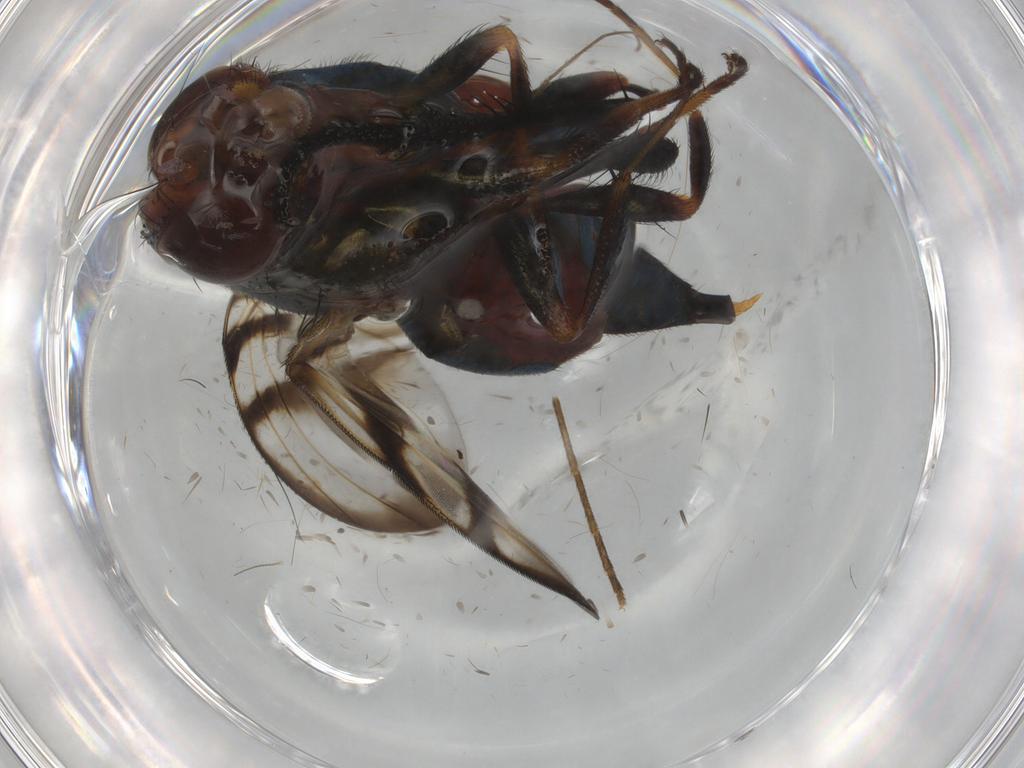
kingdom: Animalia
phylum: Arthropoda
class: Insecta
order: Diptera
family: Tachinidae
